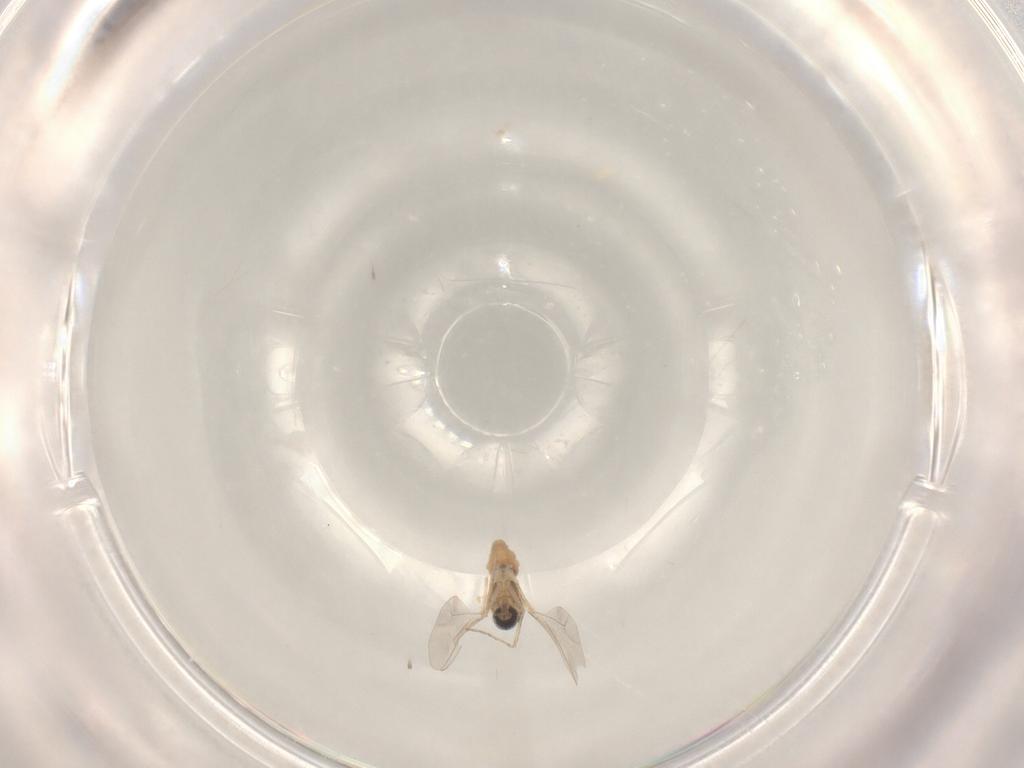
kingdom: Animalia
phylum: Arthropoda
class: Insecta
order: Diptera
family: Cecidomyiidae
